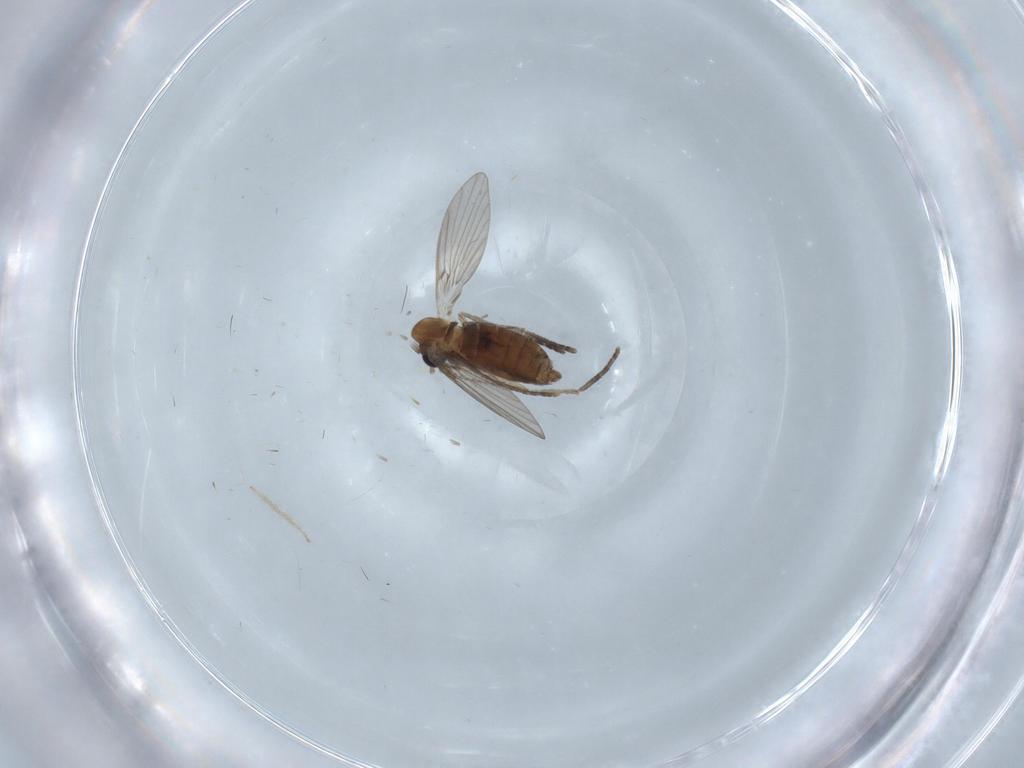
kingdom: Animalia
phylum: Arthropoda
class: Insecta
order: Diptera
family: Psychodidae
